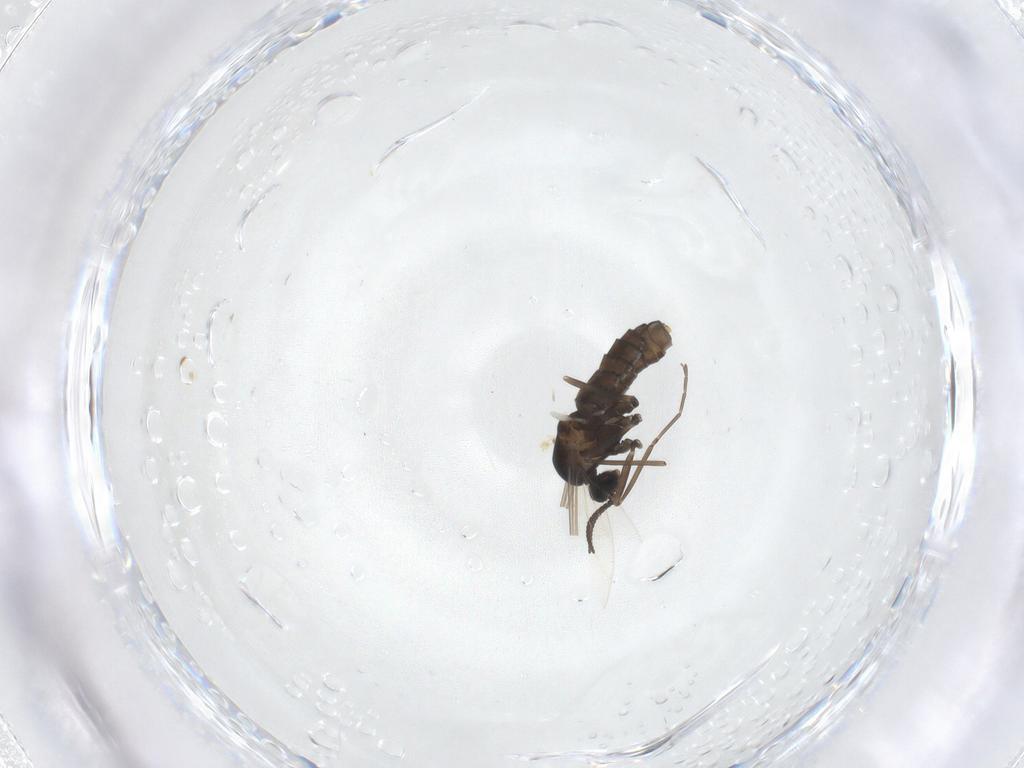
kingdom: Animalia
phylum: Arthropoda
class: Insecta
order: Diptera
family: Cecidomyiidae
